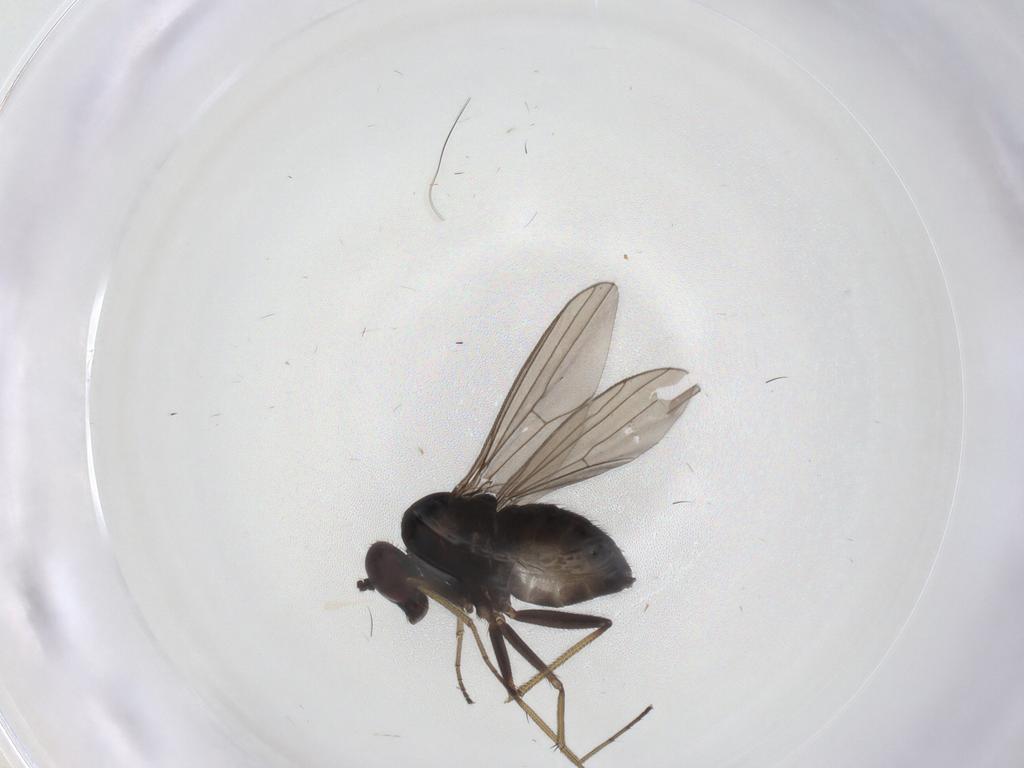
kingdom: Animalia
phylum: Arthropoda
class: Insecta
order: Diptera
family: Dolichopodidae
